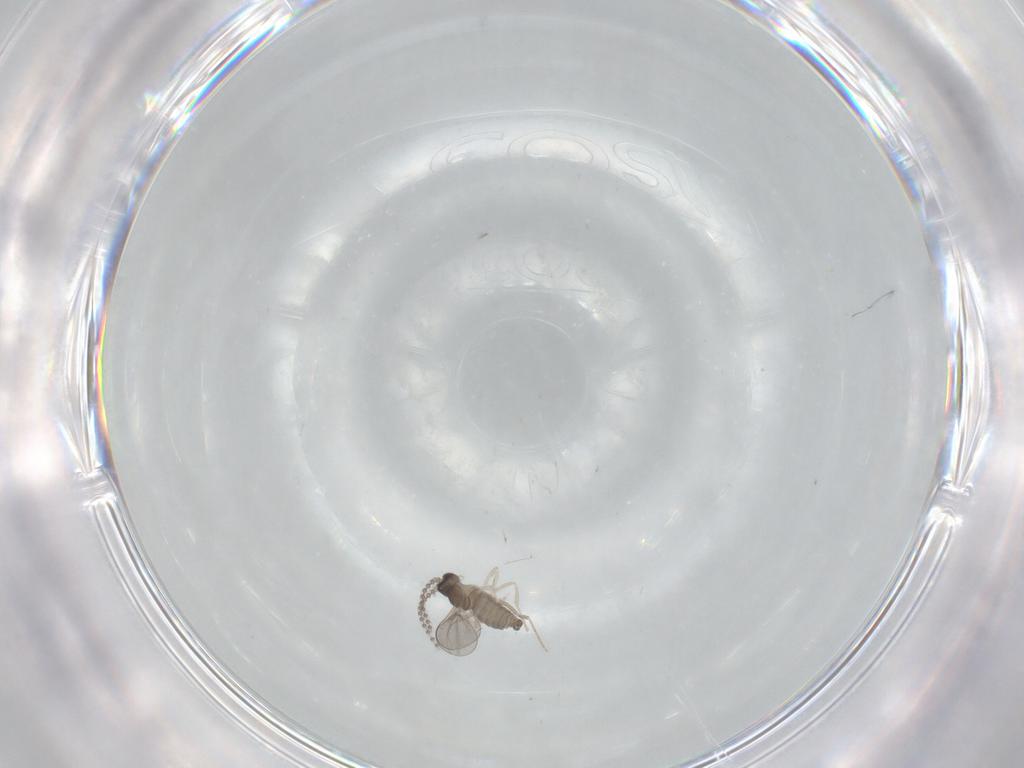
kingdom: Animalia
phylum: Arthropoda
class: Insecta
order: Diptera
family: Cecidomyiidae
